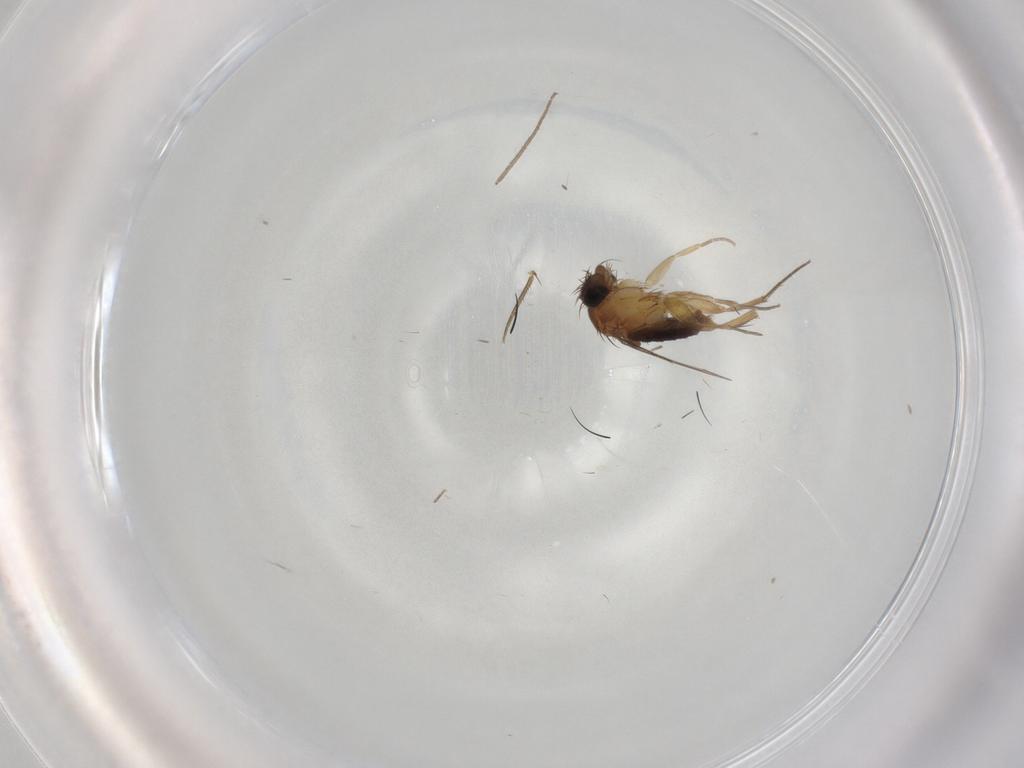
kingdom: Animalia
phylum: Arthropoda
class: Insecta
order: Diptera
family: Phoridae
